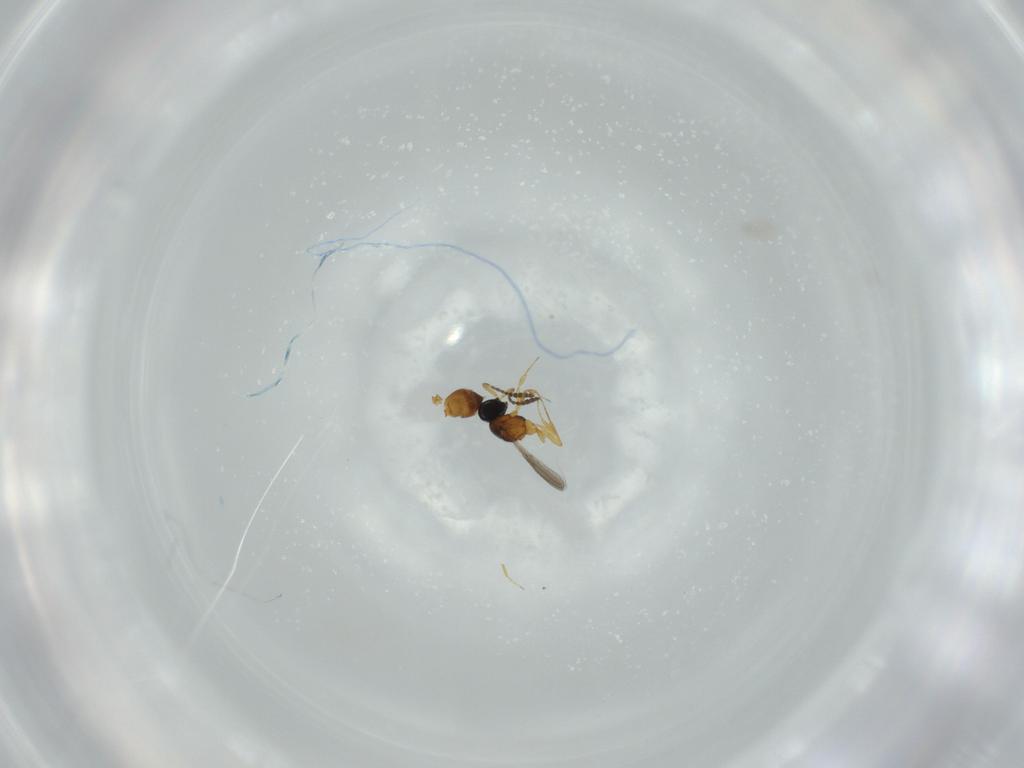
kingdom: Animalia
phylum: Arthropoda
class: Insecta
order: Hymenoptera
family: Scelionidae
